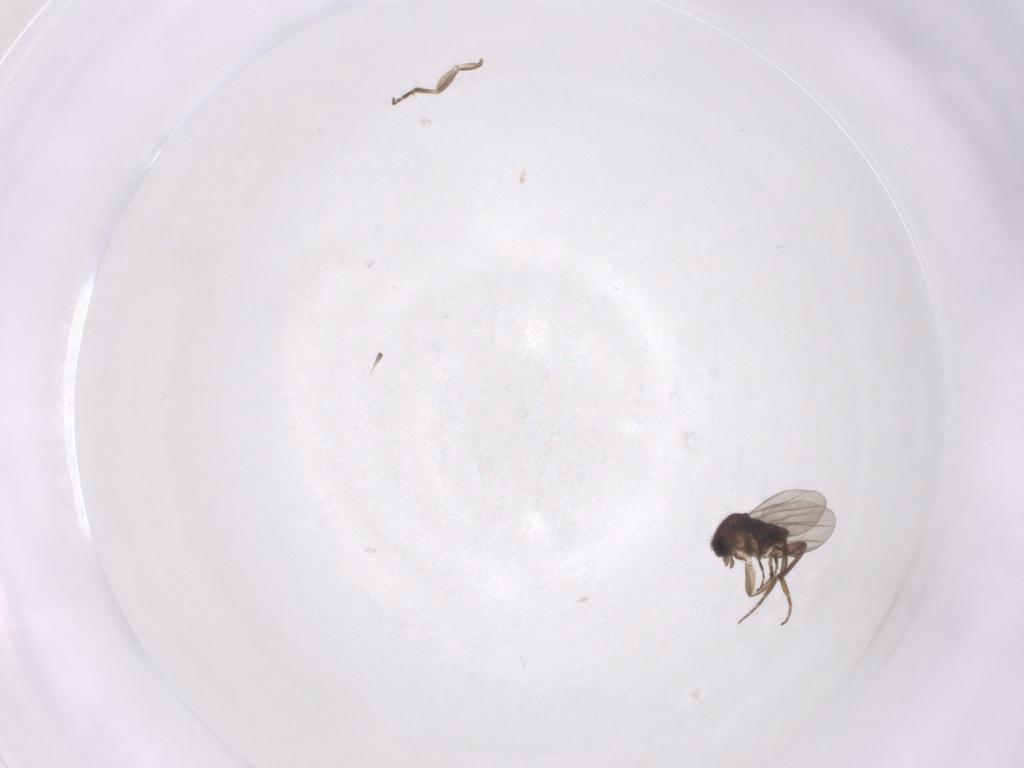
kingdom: Animalia
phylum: Arthropoda
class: Insecta
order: Diptera
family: Phoridae
